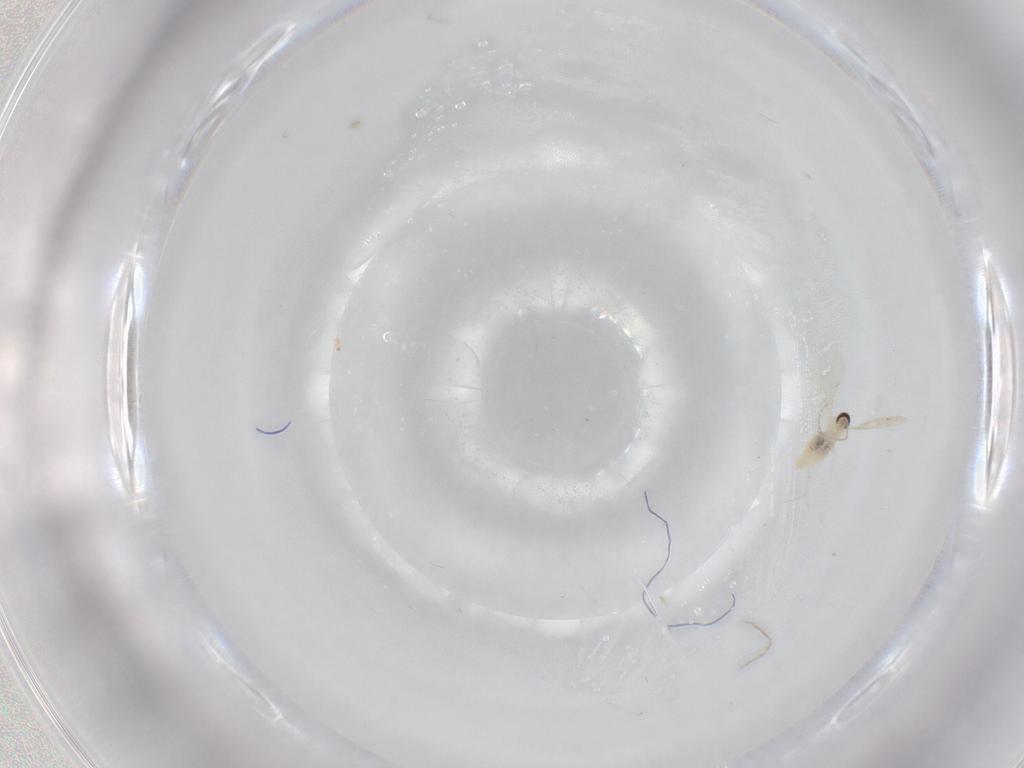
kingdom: Animalia
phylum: Arthropoda
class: Insecta
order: Diptera
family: Cecidomyiidae
